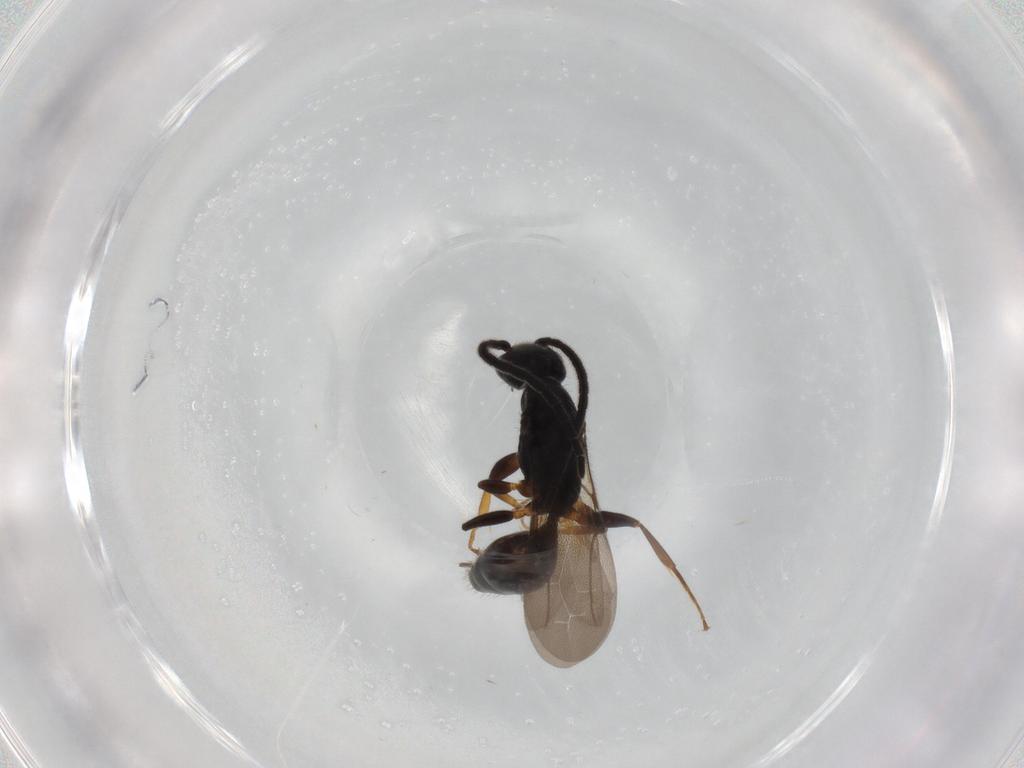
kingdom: Animalia
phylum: Arthropoda
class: Insecta
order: Hymenoptera
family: Bethylidae
